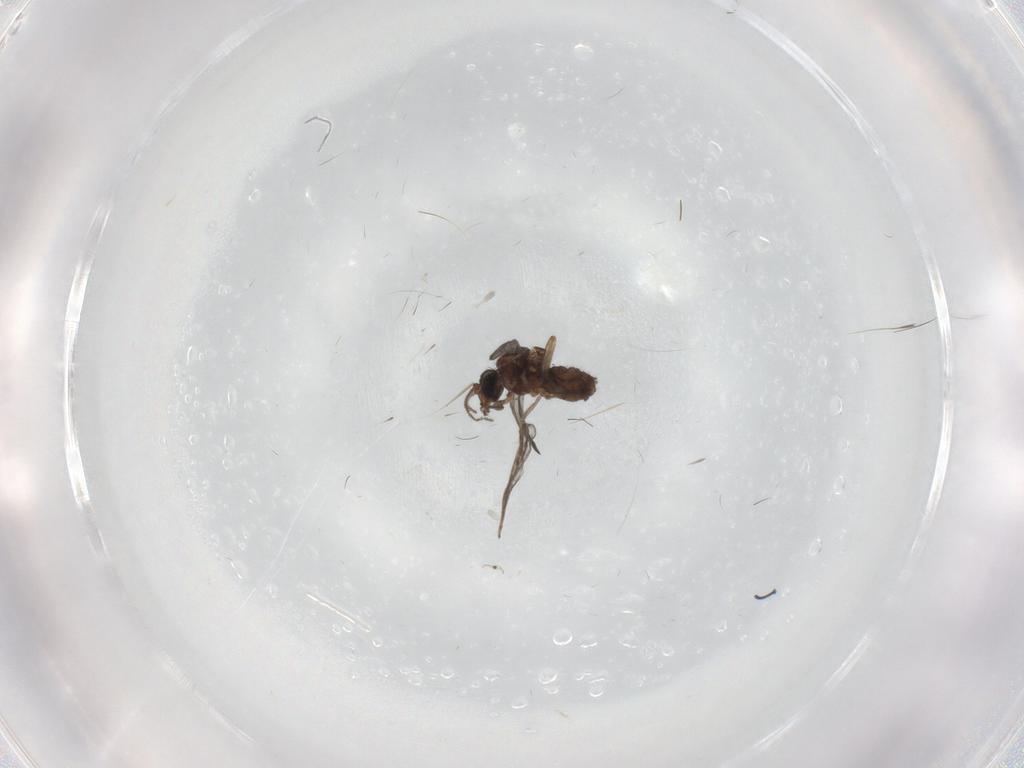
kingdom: Animalia
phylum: Arthropoda
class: Insecta
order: Diptera
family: Ceratopogonidae
